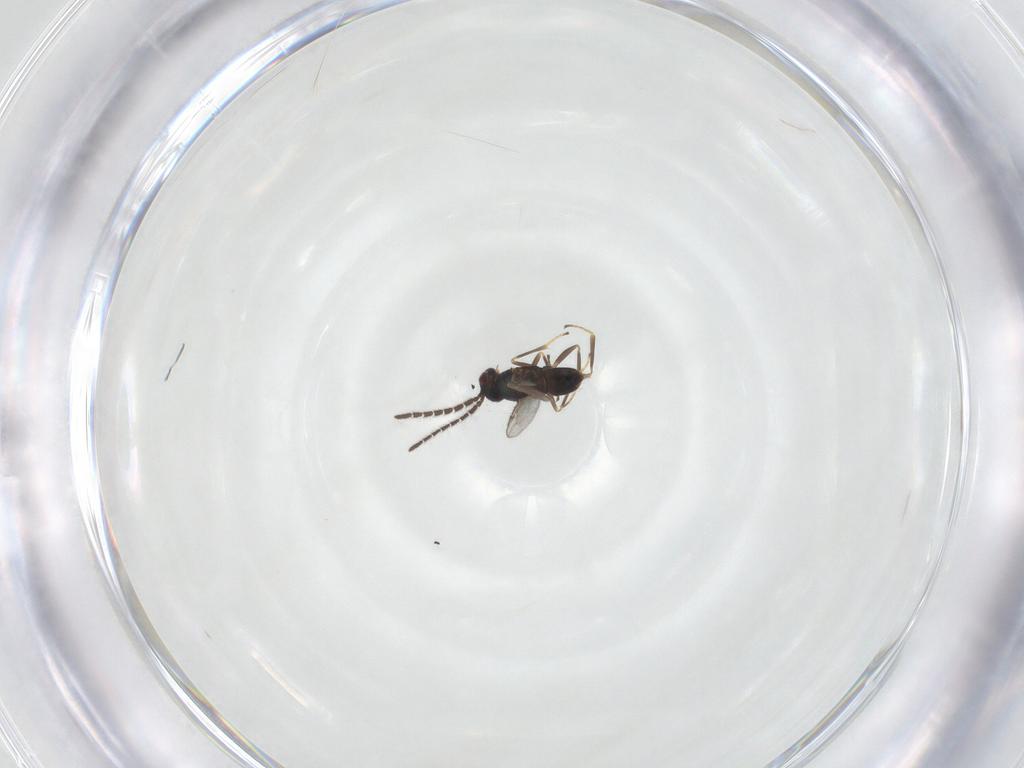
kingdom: Animalia
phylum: Arthropoda
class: Insecta
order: Hymenoptera
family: Encyrtidae
